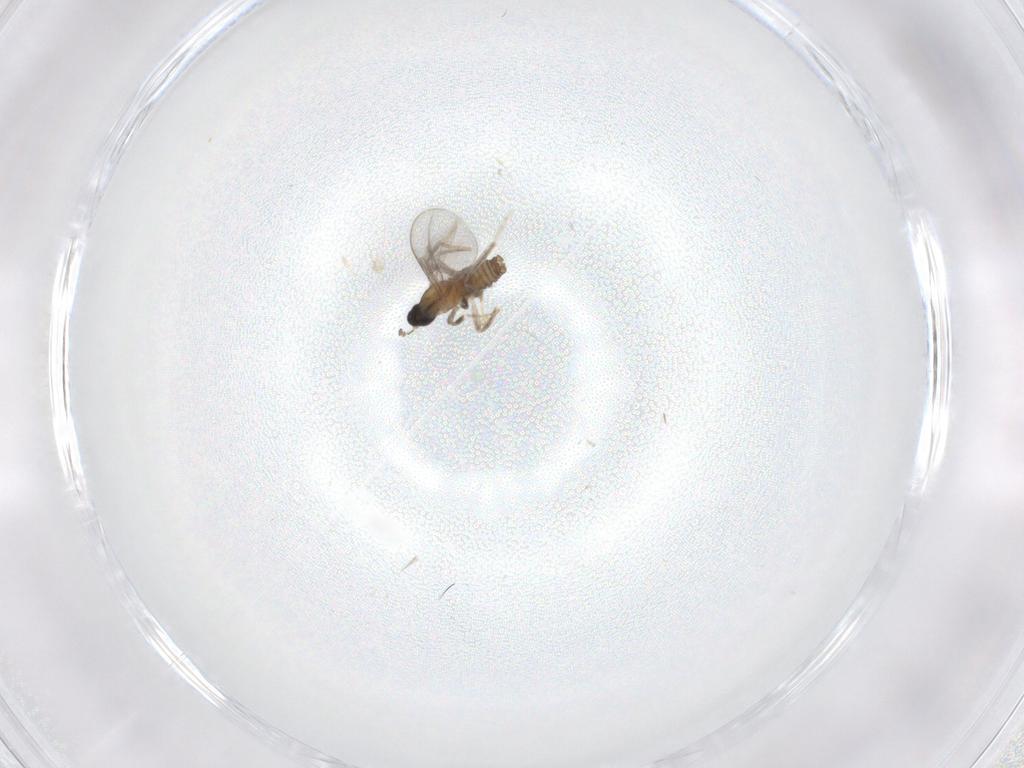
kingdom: Animalia
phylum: Arthropoda
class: Insecta
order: Diptera
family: Cecidomyiidae
